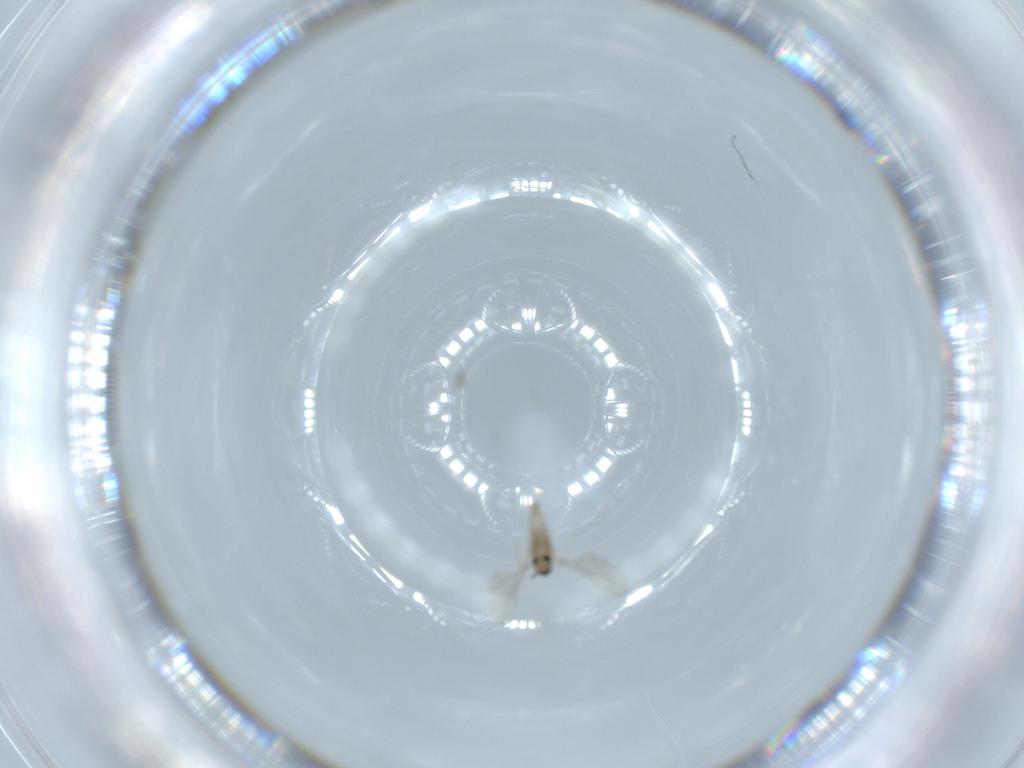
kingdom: Animalia
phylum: Arthropoda
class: Insecta
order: Diptera
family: Cecidomyiidae
